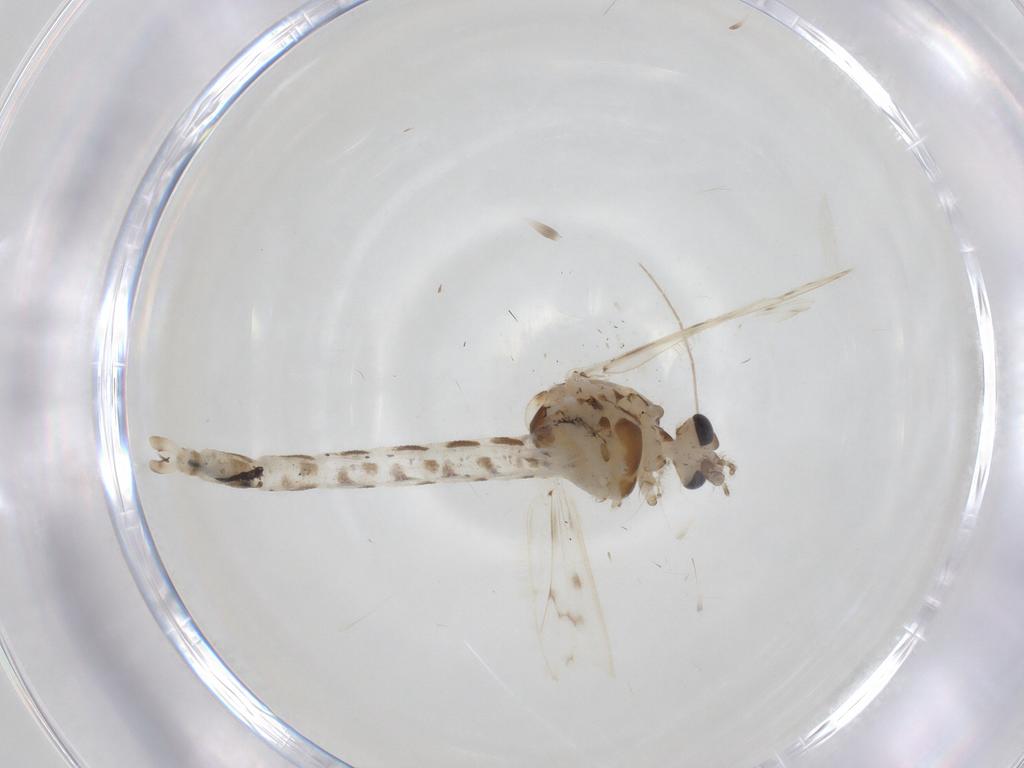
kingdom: Animalia
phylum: Arthropoda
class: Insecta
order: Diptera
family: Chaoboridae
